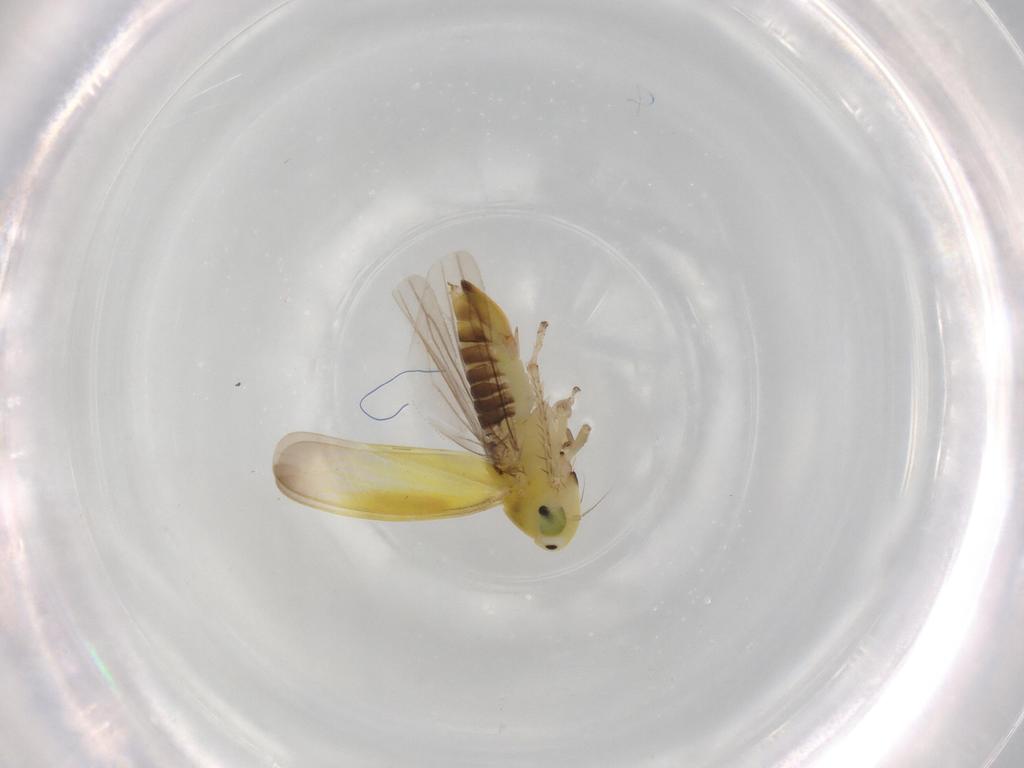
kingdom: Animalia
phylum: Arthropoda
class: Insecta
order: Hemiptera
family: Cicadellidae
